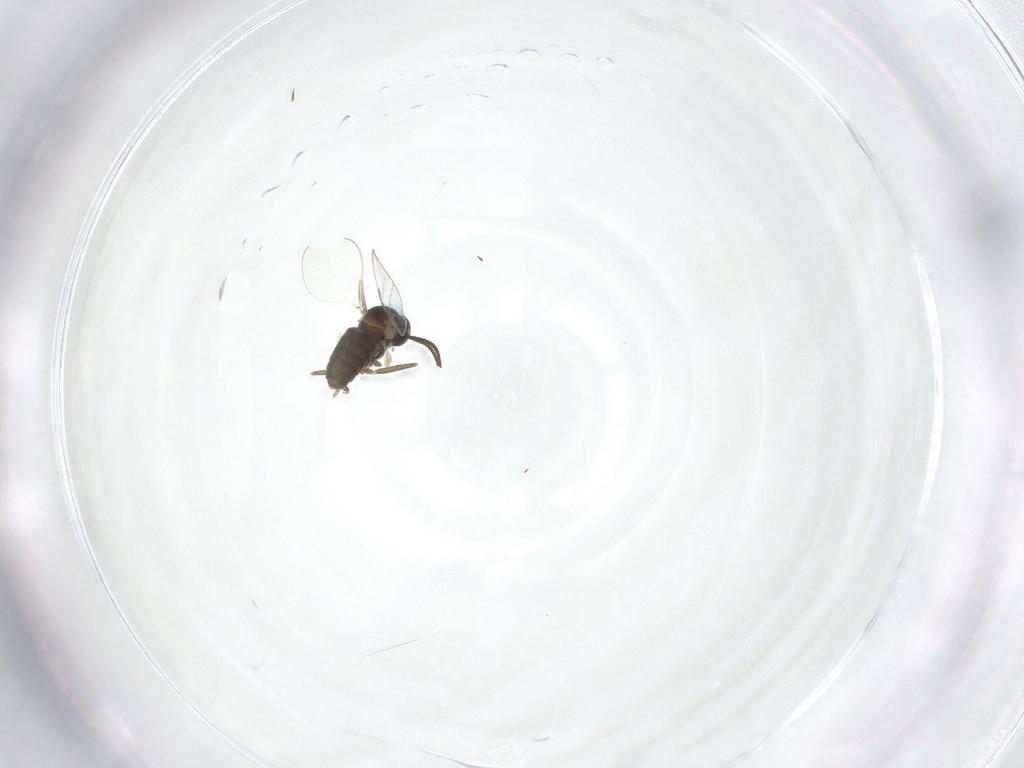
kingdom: Animalia
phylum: Arthropoda
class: Insecta
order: Diptera
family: Cecidomyiidae
